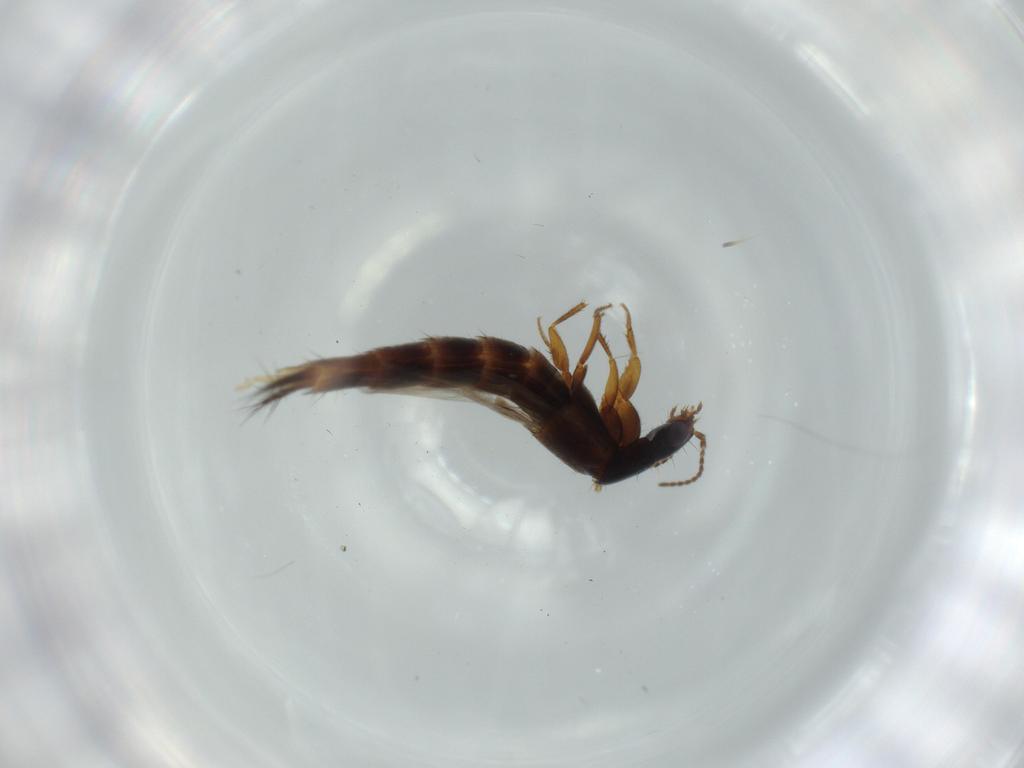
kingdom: Animalia
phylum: Arthropoda
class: Insecta
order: Coleoptera
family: Staphylinidae
